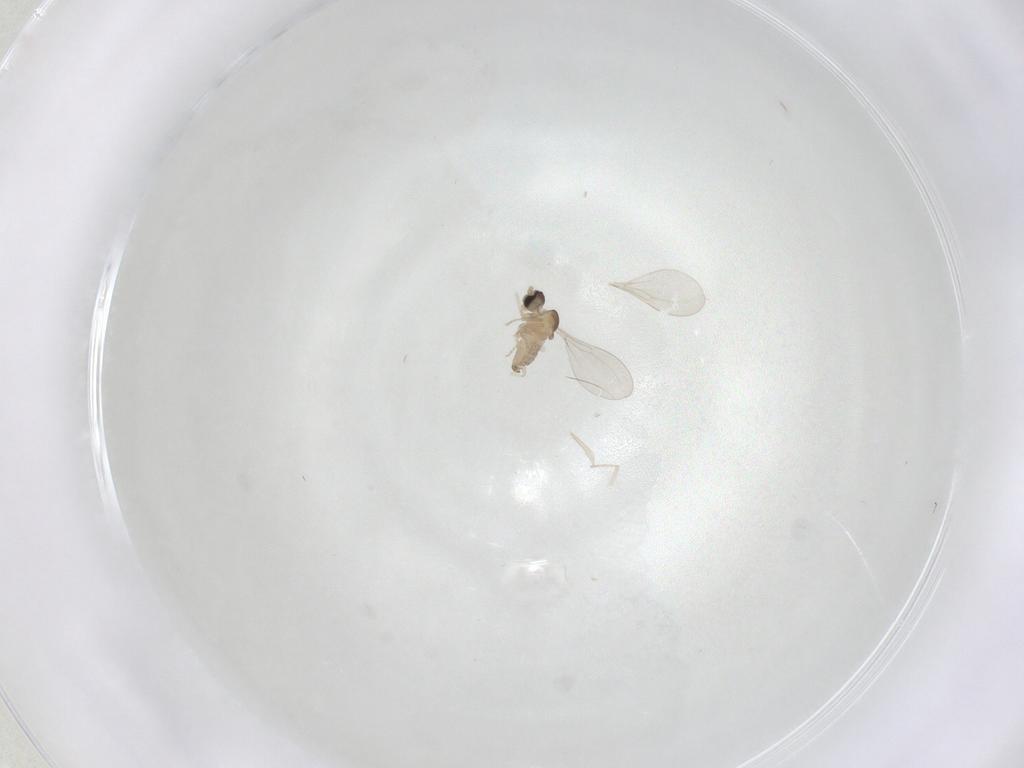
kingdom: Animalia
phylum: Arthropoda
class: Insecta
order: Diptera
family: Cecidomyiidae
